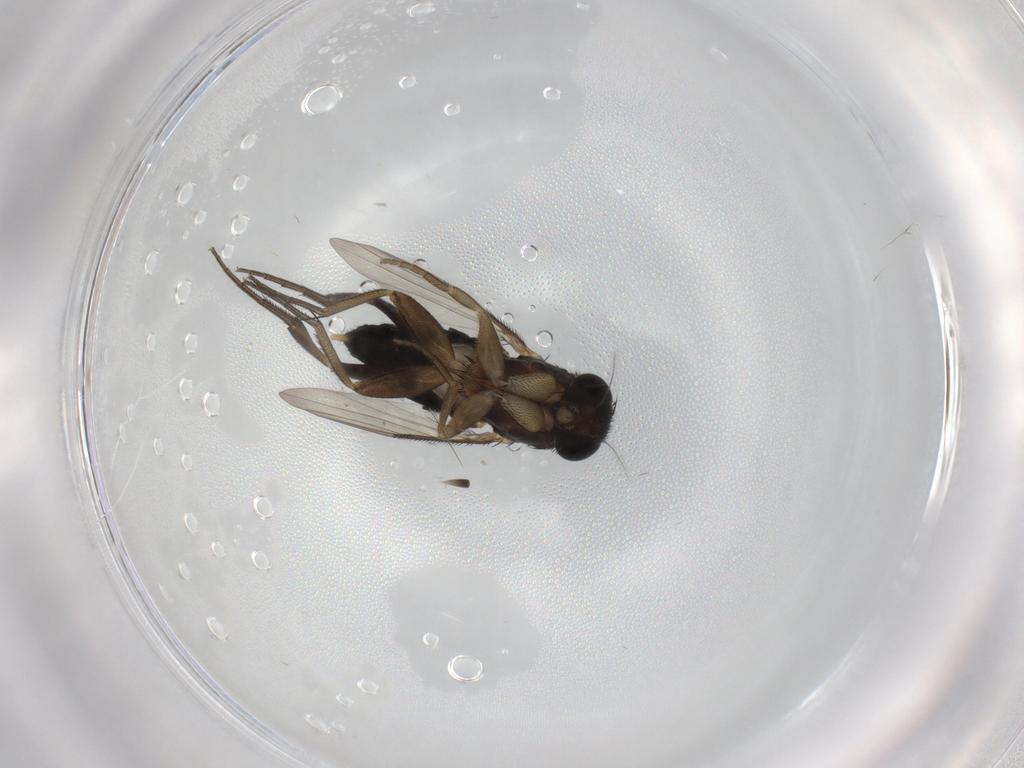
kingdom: Animalia
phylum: Arthropoda
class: Insecta
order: Diptera
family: Phoridae
